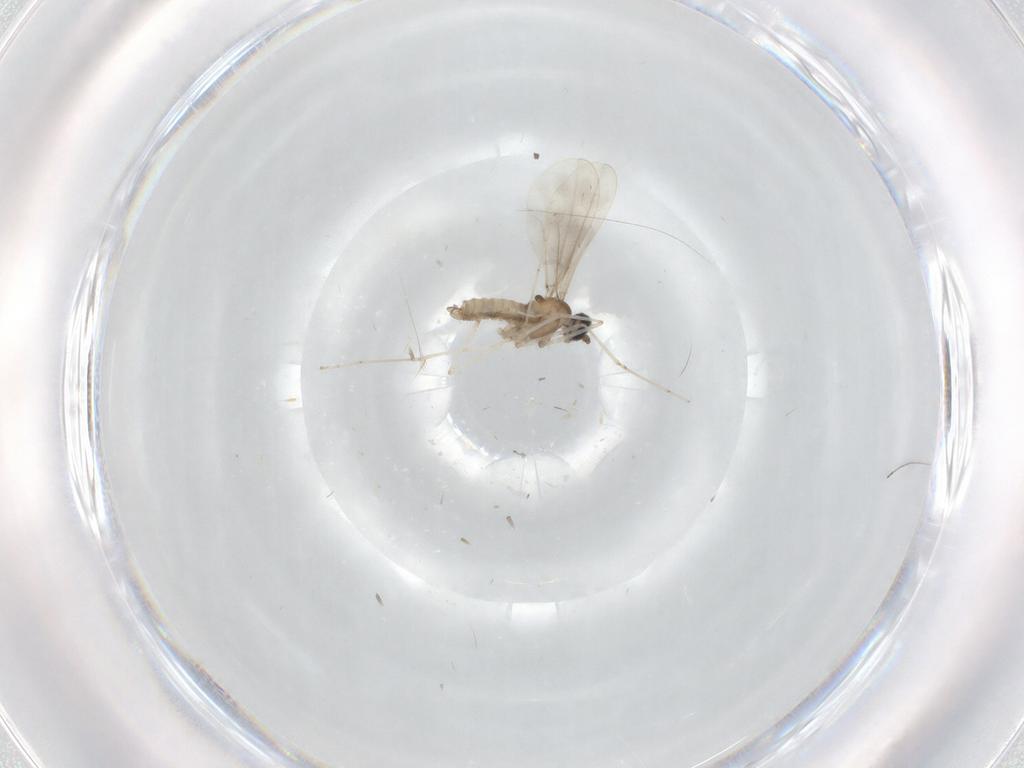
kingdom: Animalia
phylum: Arthropoda
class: Insecta
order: Diptera
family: Cecidomyiidae
